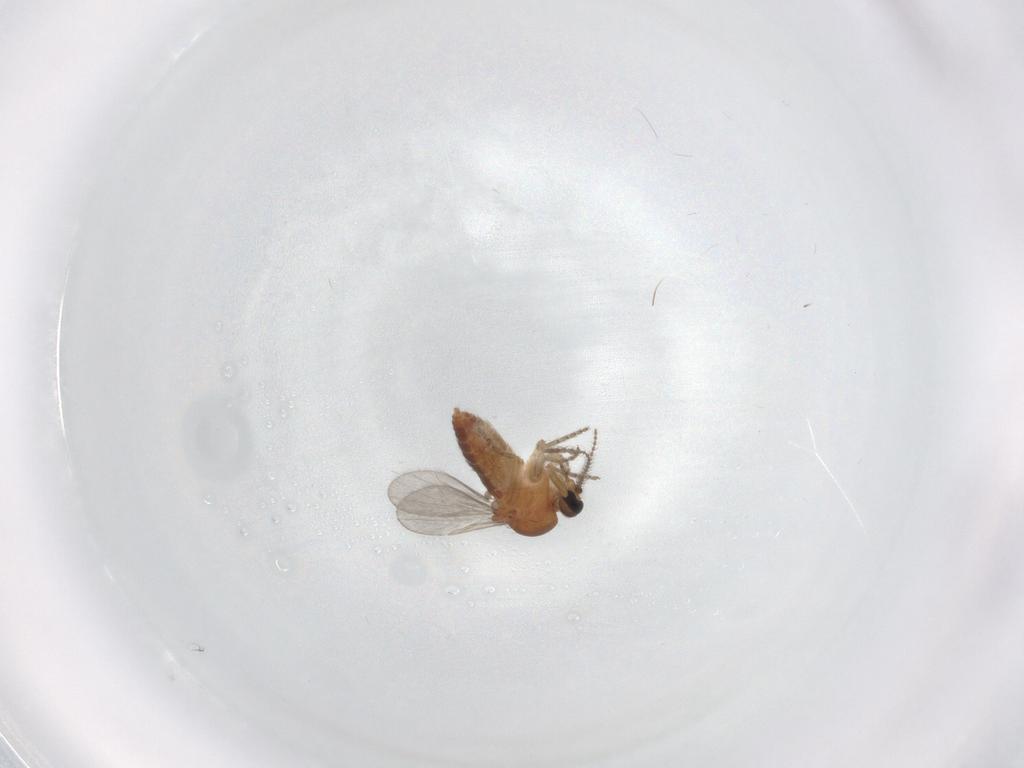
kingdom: Animalia
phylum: Arthropoda
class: Insecta
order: Diptera
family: Ceratopogonidae
